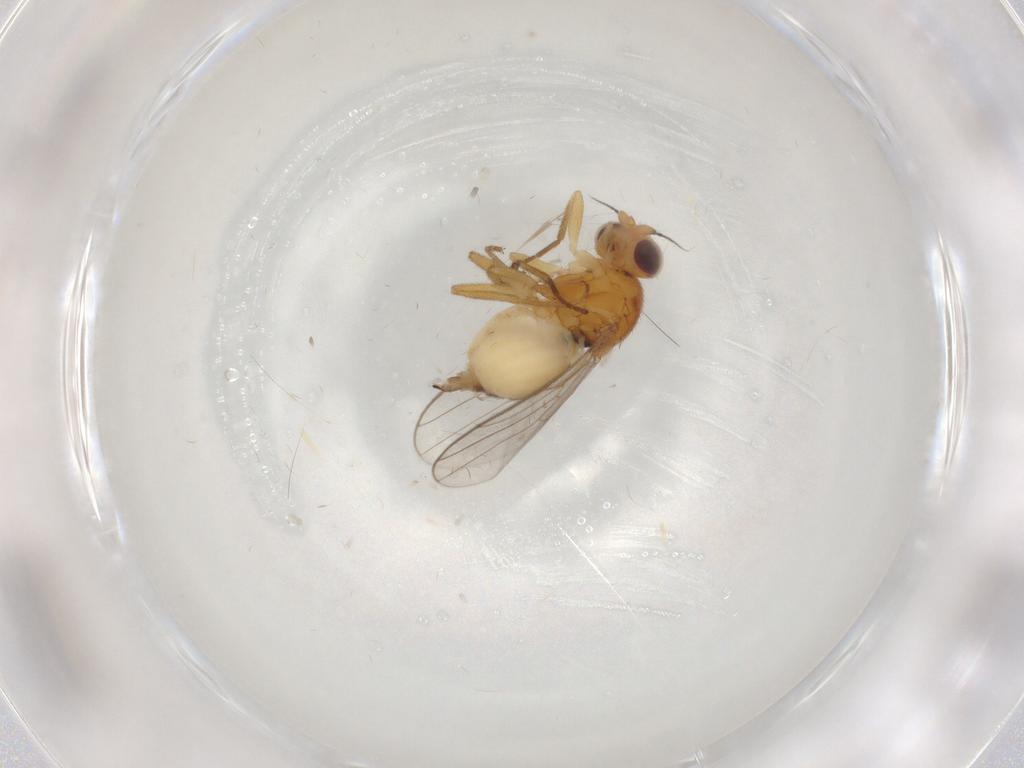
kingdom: Animalia
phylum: Arthropoda
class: Insecta
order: Diptera
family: Chloropidae
